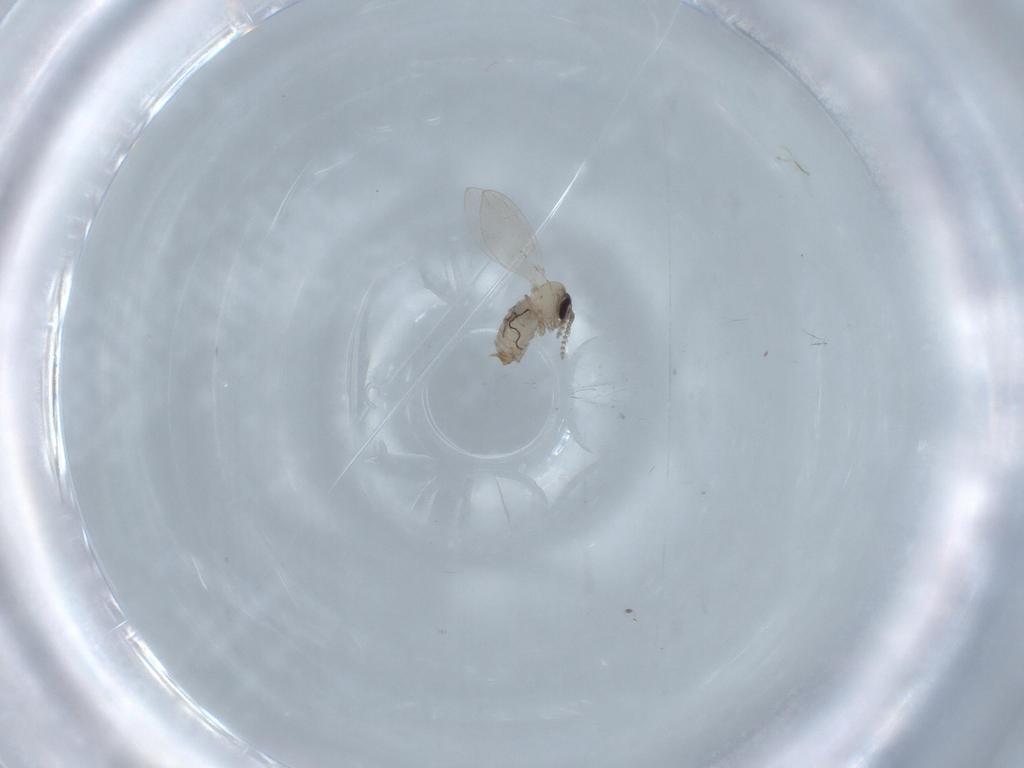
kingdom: Animalia
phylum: Arthropoda
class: Insecta
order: Diptera
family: Psychodidae
